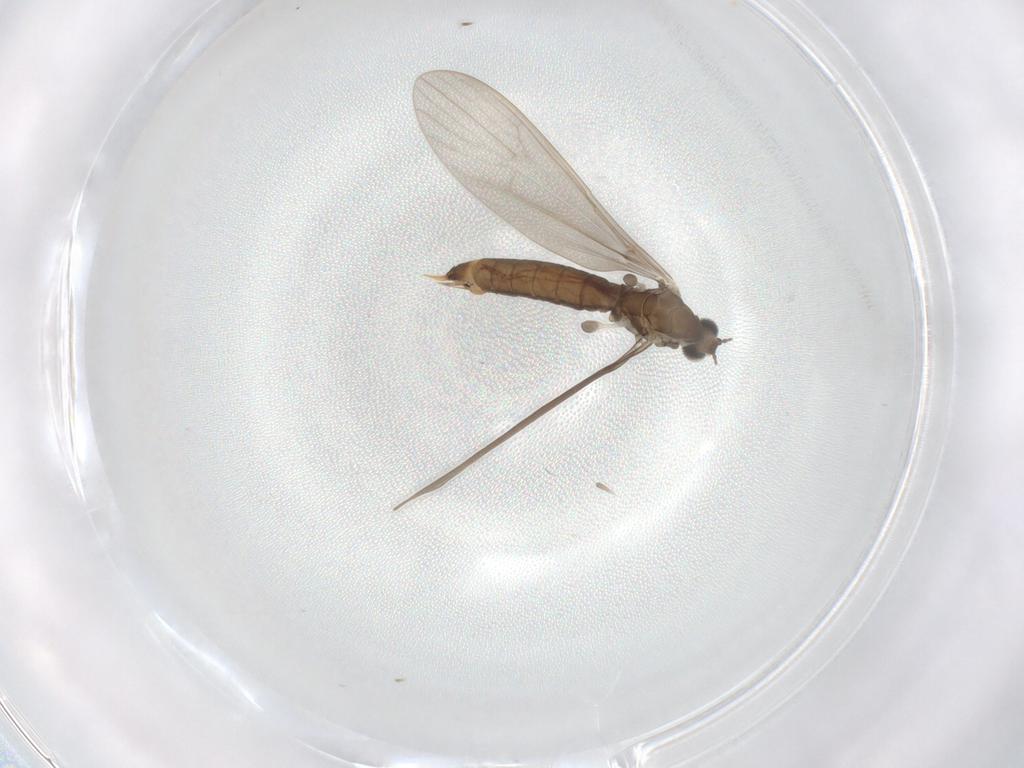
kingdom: Animalia
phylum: Arthropoda
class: Insecta
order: Diptera
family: Limoniidae
